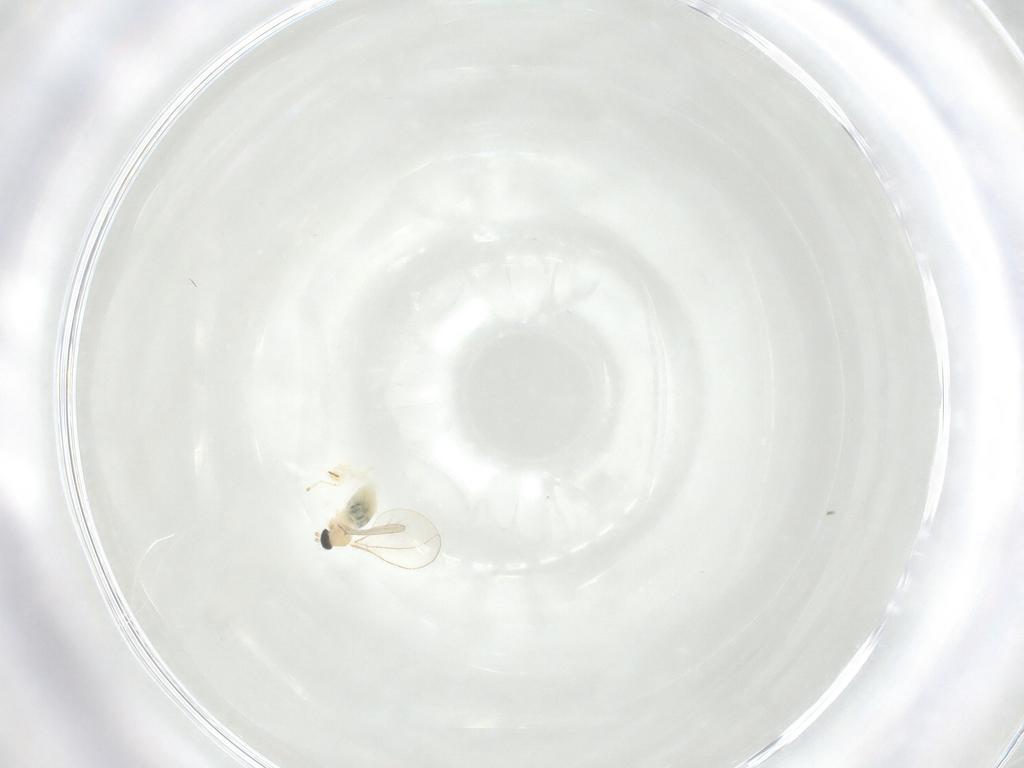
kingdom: Animalia
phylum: Arthropoda
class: Insecta
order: Diptera
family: Cecidomyiidae
